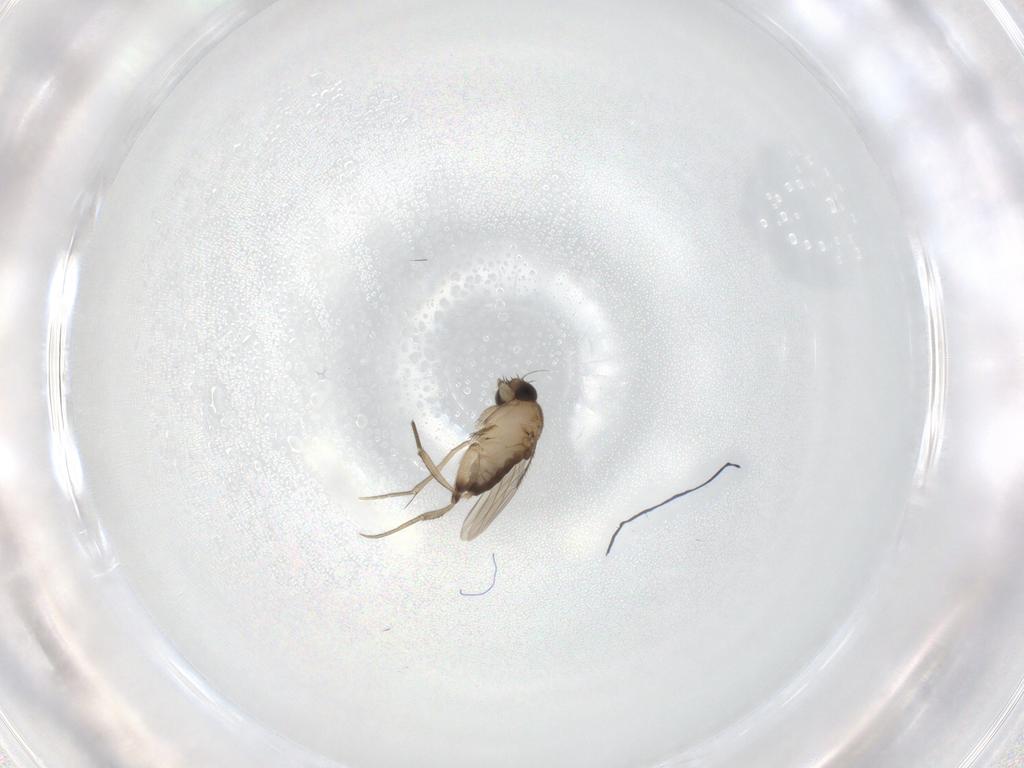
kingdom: Animalia
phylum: Arthropoda
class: Insecta
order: Diptera
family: Phoridae
